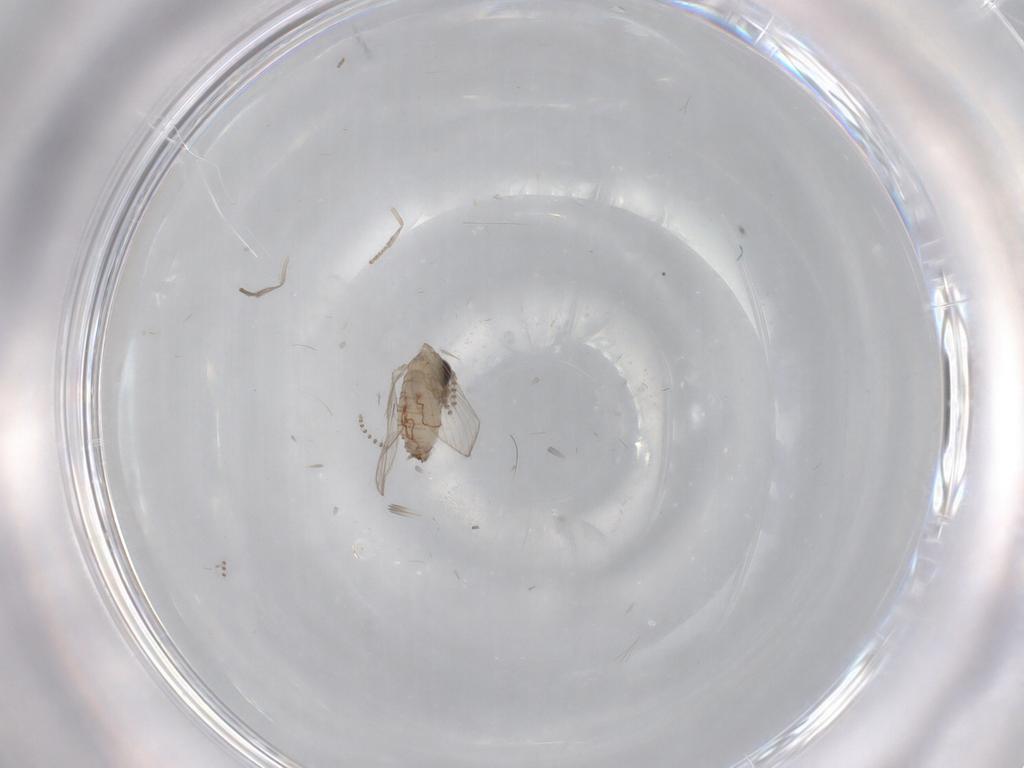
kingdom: Animalia
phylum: Arthropoda
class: Insecta
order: Diptera
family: Psychodidae
